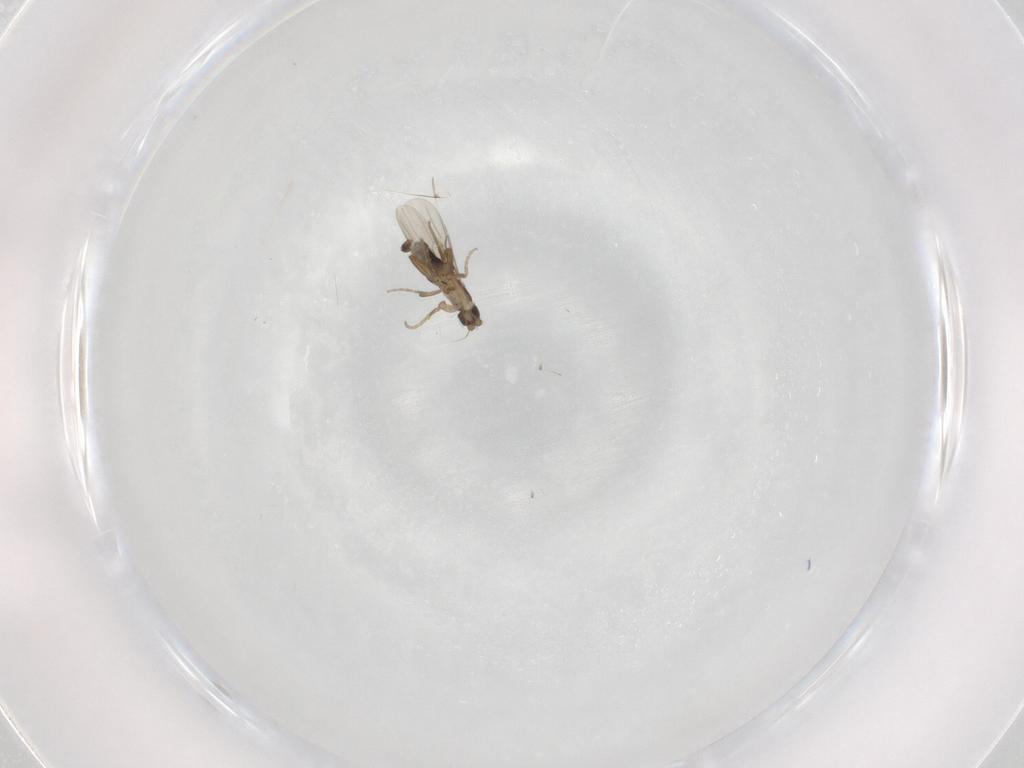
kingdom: Animalia
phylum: Arthropoda
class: Insecta
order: Diptera
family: Phoridae
